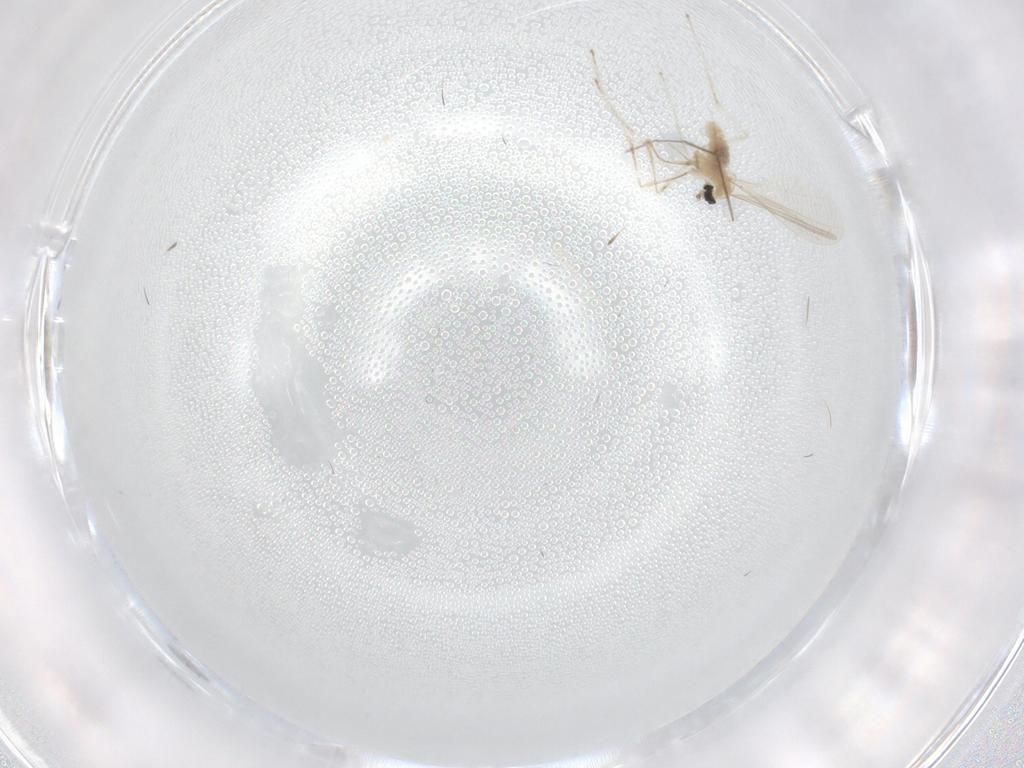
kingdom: Animalia
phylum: Arthropoda
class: Insecta
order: Diptera
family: Chironomidae
